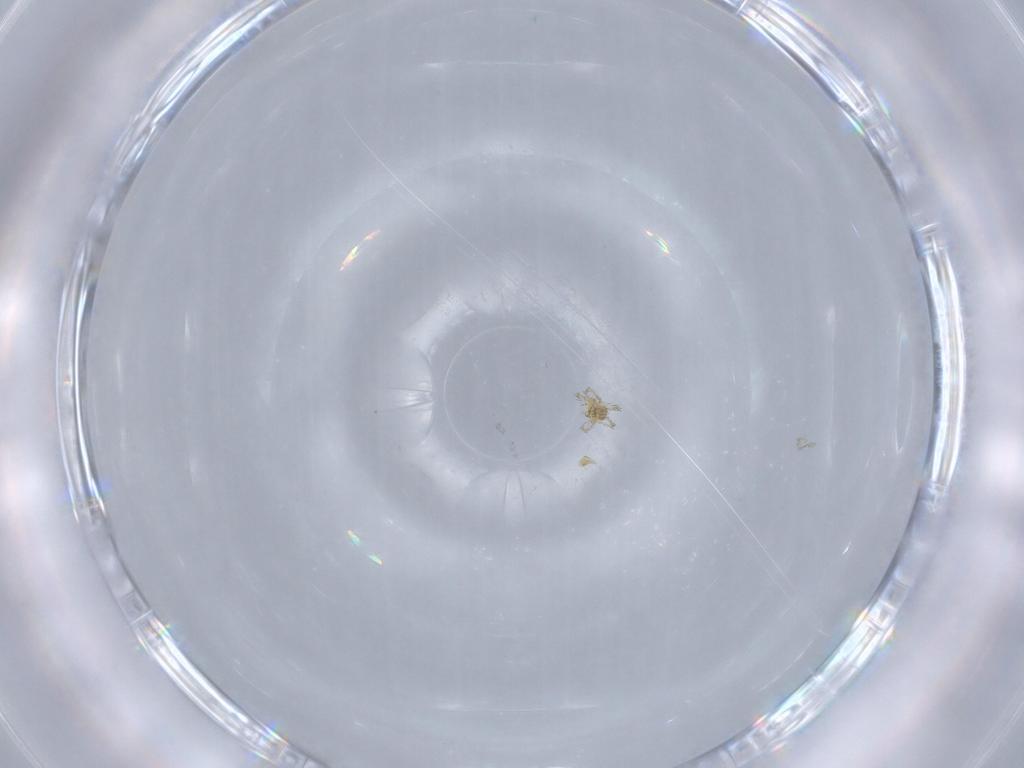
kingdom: Animalia
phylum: Arthropoda
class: Arachnida
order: Trombidiformes
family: Erythraeidae
